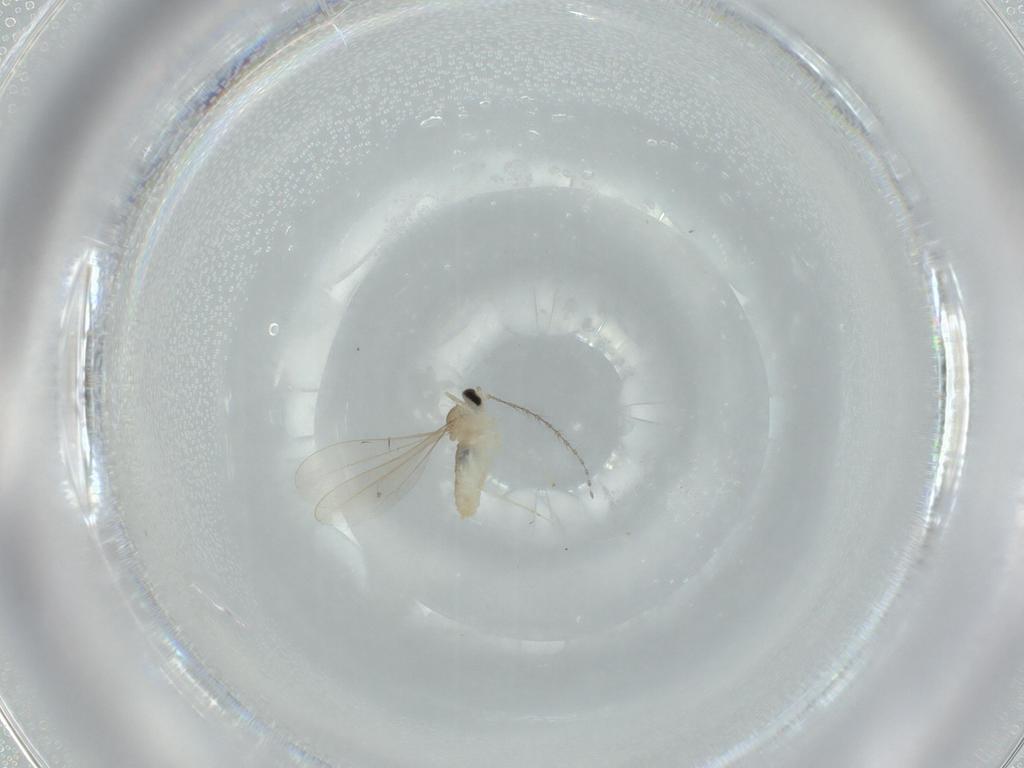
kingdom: Animalia
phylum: Arthropoda
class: Insecta
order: Diptera
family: Cecidomyiidae
